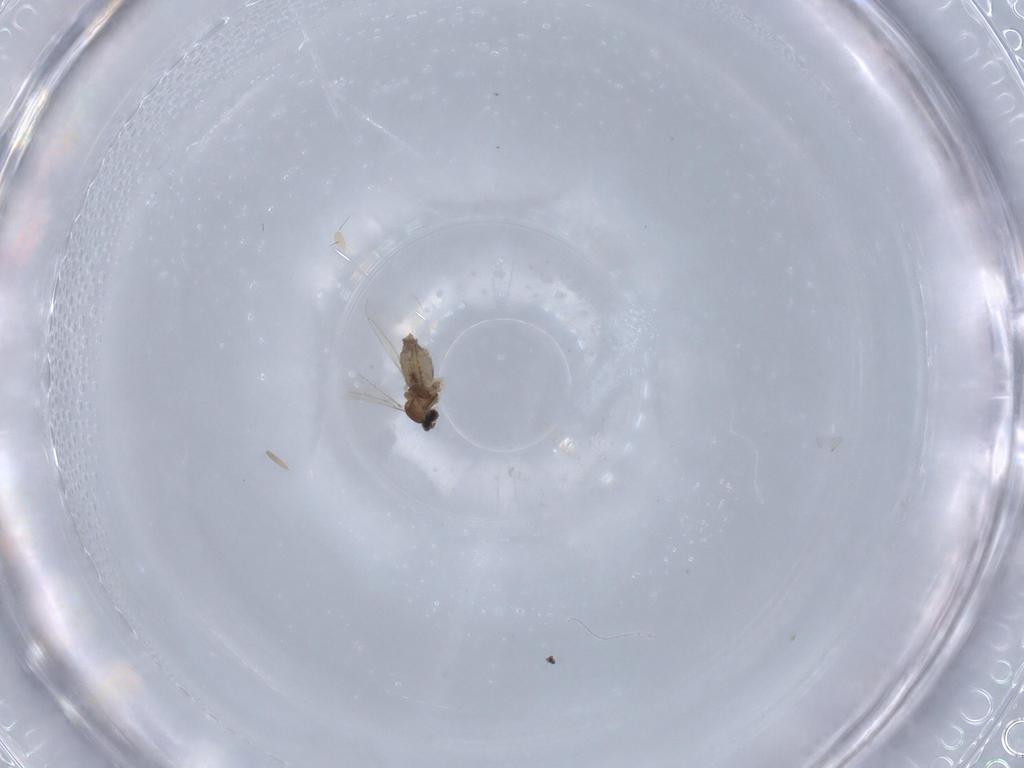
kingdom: Animalia
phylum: Arthropoda
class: Insecta
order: Diptera
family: Cecidomyiidae
